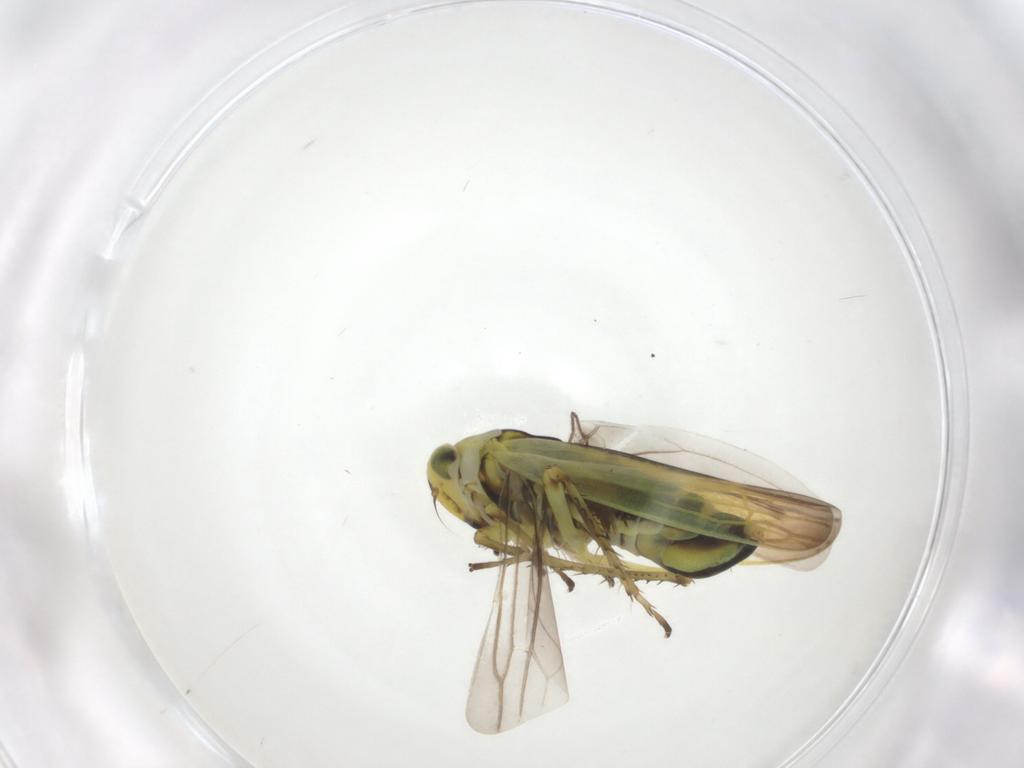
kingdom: Animalia
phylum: Arthropoda
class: Insecta
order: Hemiptera
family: Cicadellidae
